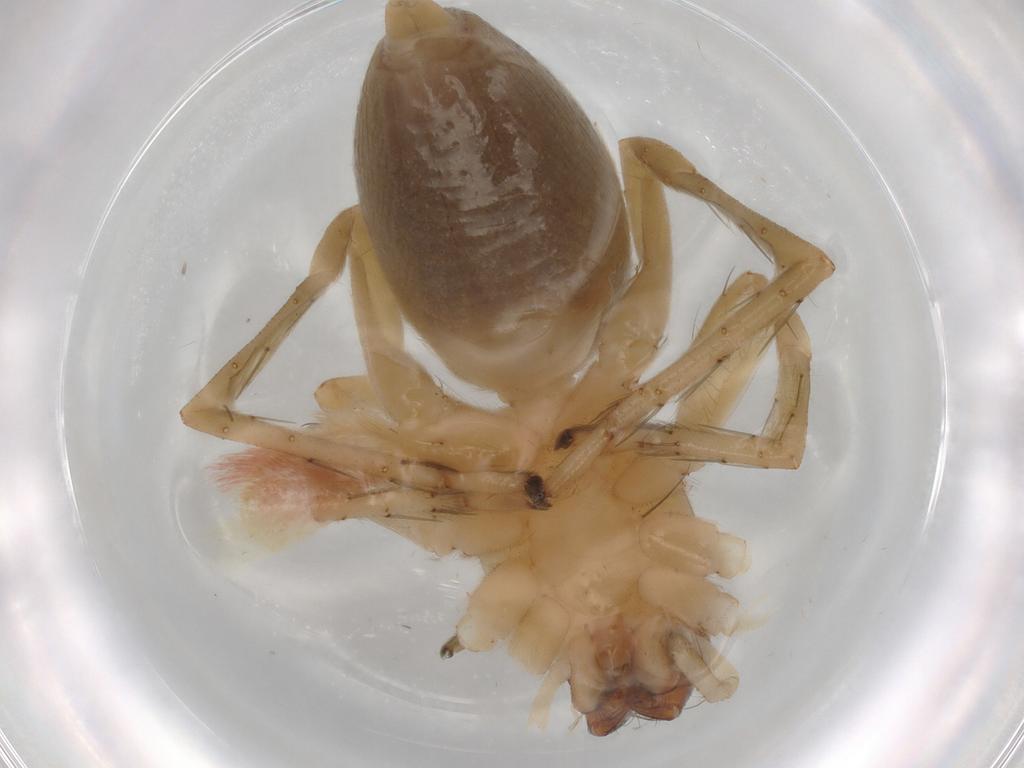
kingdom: Animalia
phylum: Arthropoda
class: Arachnida
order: Araneae
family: Clubionidae
